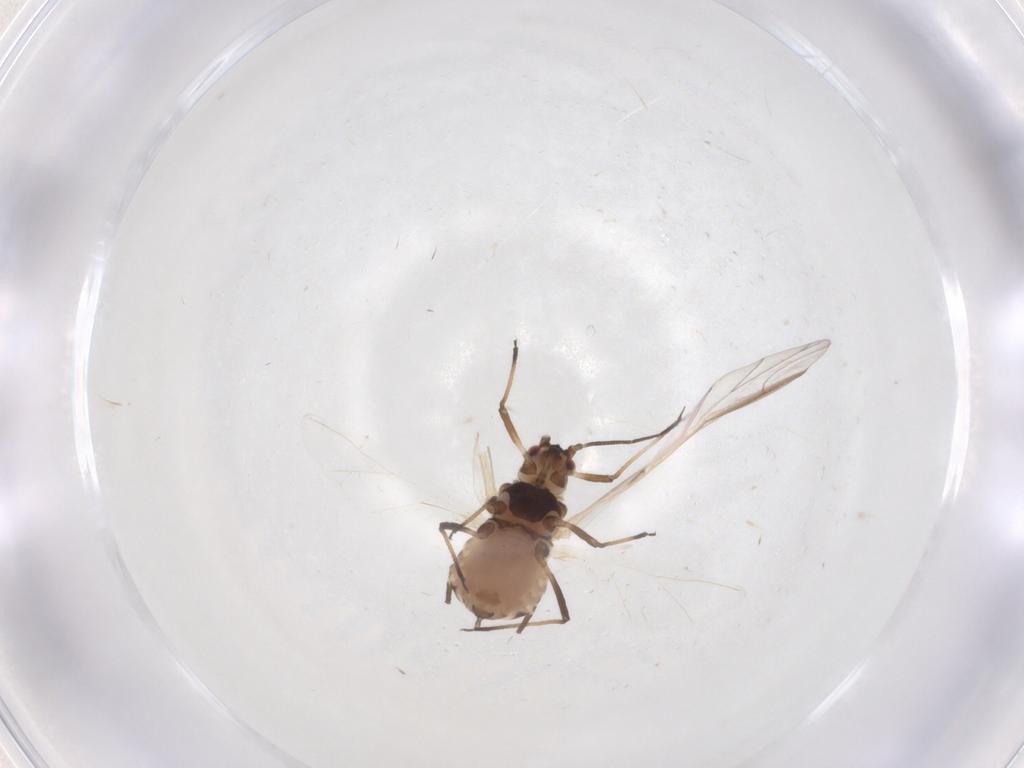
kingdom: Animalia
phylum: Arthropoda
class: Insecta
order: Hemiptera
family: Aphididae
